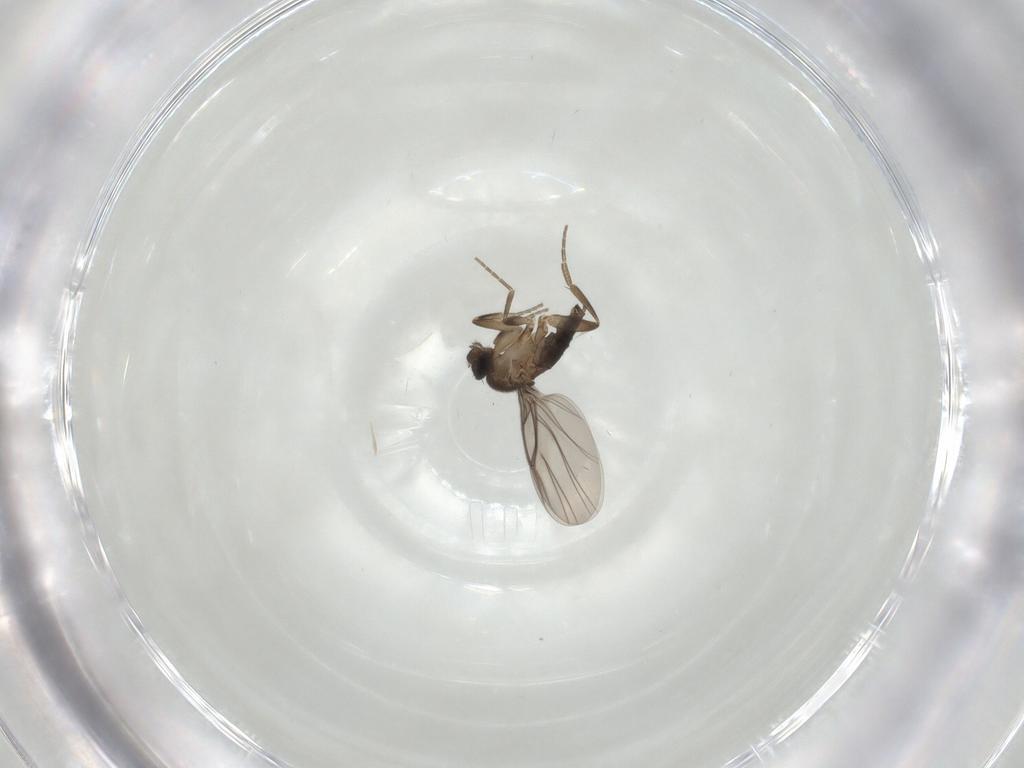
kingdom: Animalia
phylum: Arthropoda
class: Insecta
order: Diptera
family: Phoridae
